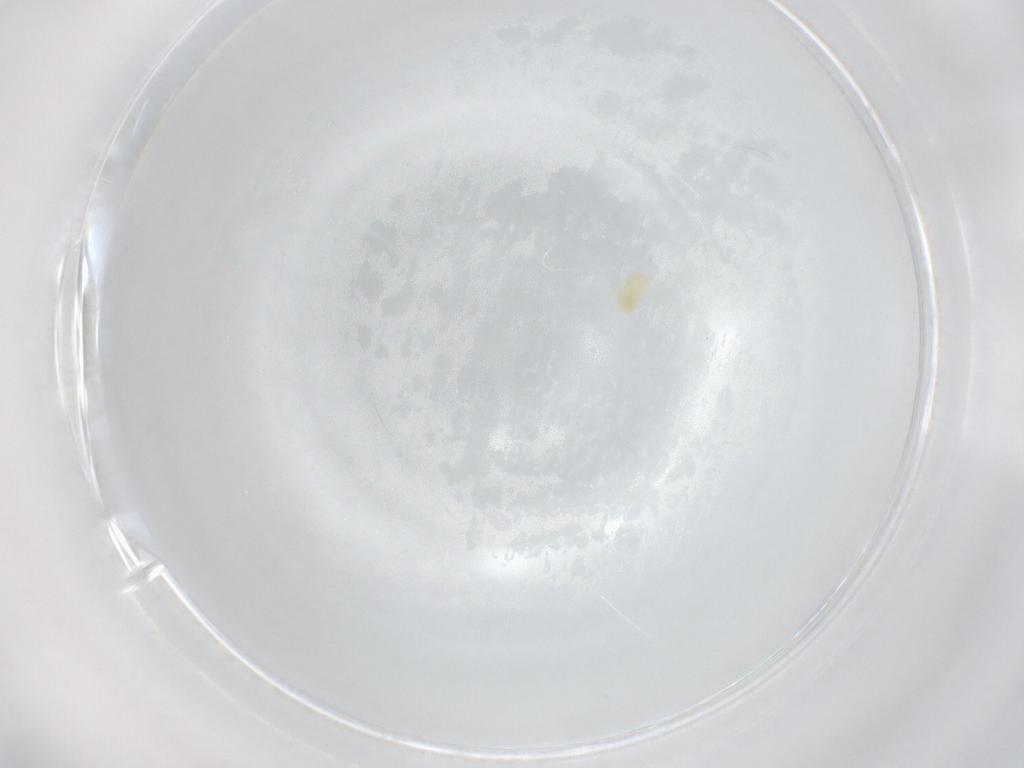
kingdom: Animalia
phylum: Arthropoda
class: Arachnida
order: Trombidiformes
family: Eupodidae
